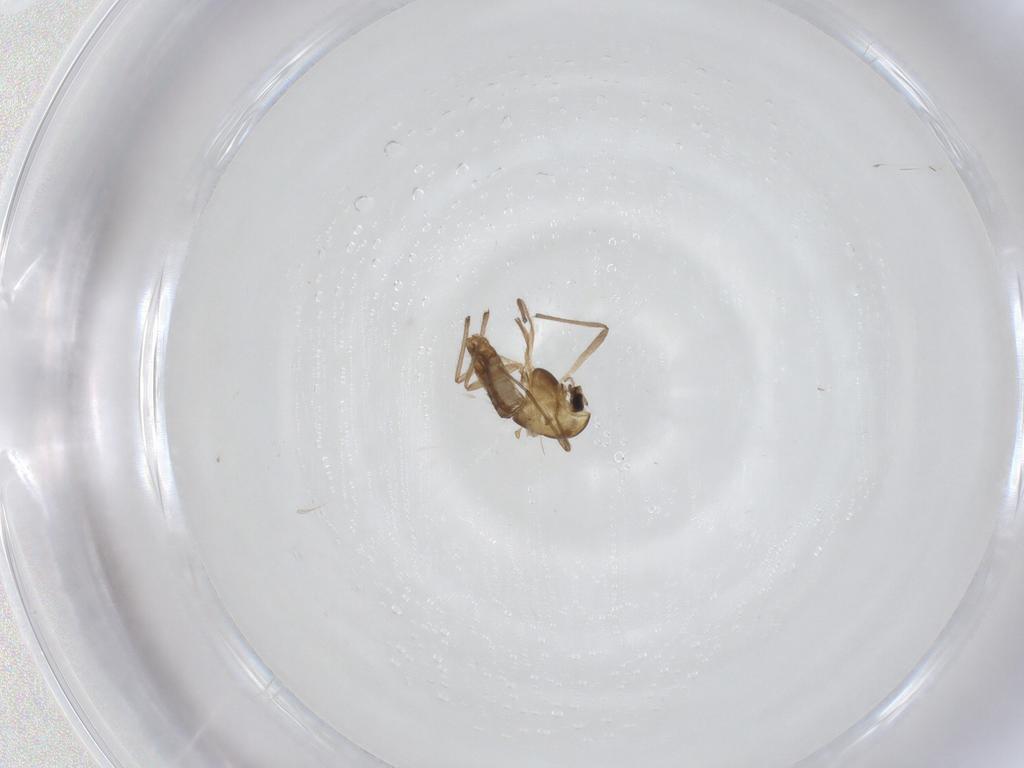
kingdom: Animalia
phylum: Arthropoda
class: Insecta
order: Diptera
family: Chironomidae
